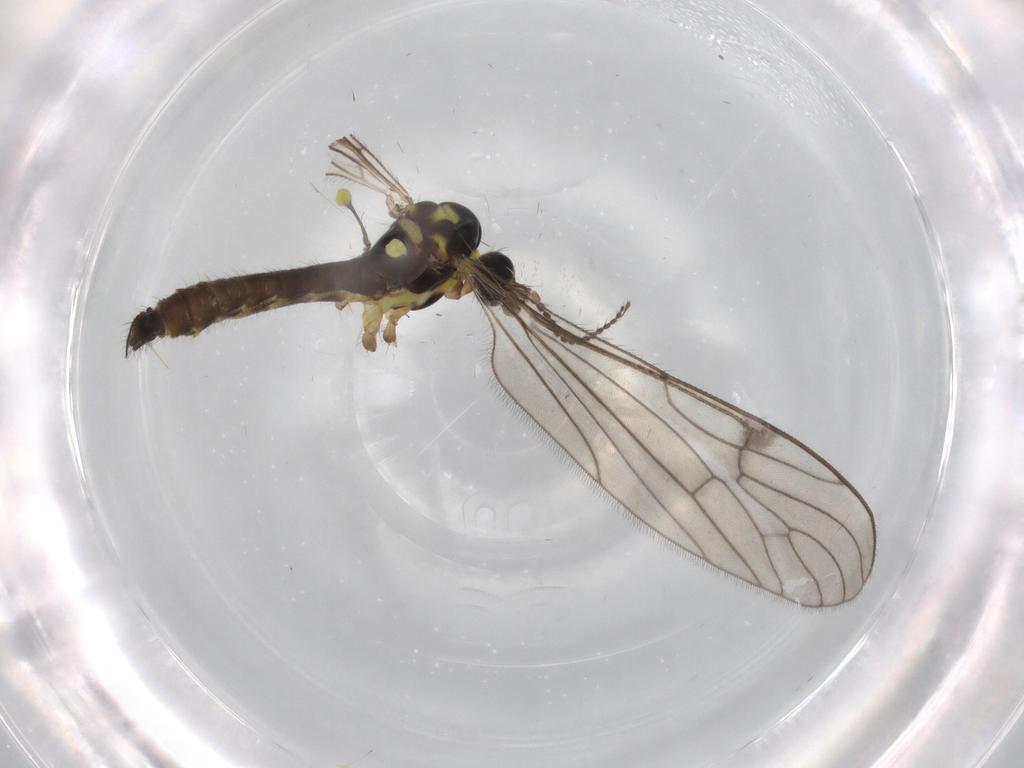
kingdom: Animalia
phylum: Arthropoda
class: Insecta
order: Diptera
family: Limoniidae
